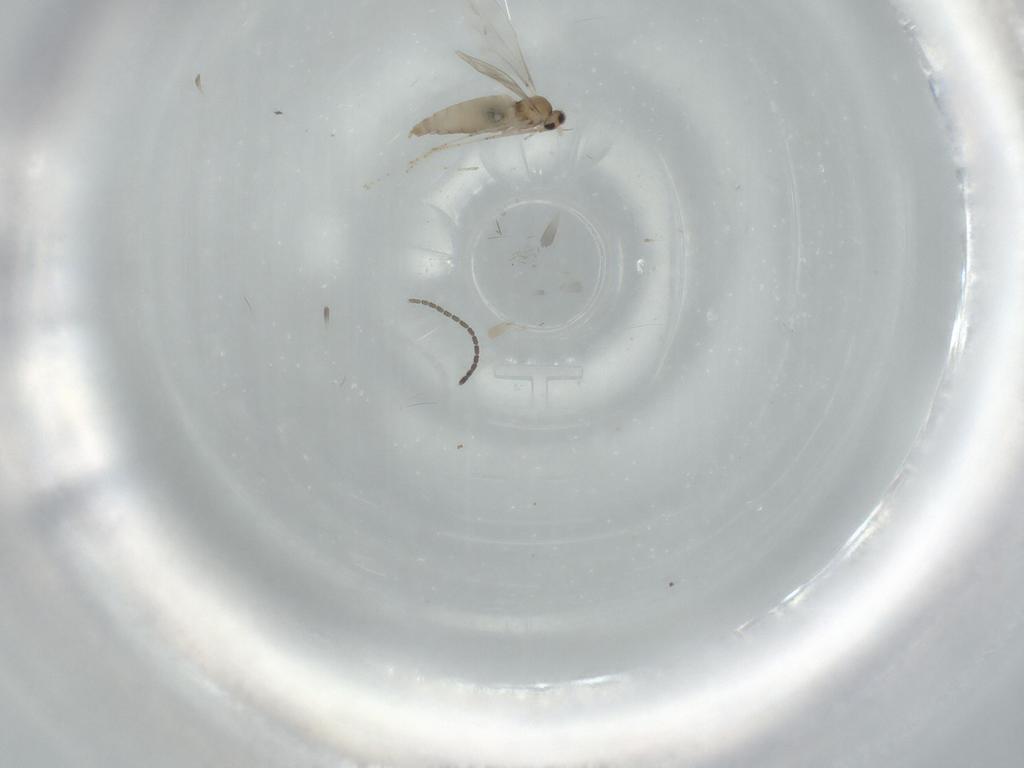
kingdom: Animalia
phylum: Arthropoda
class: Insecta
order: Diptera
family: Cecidomyiidae
